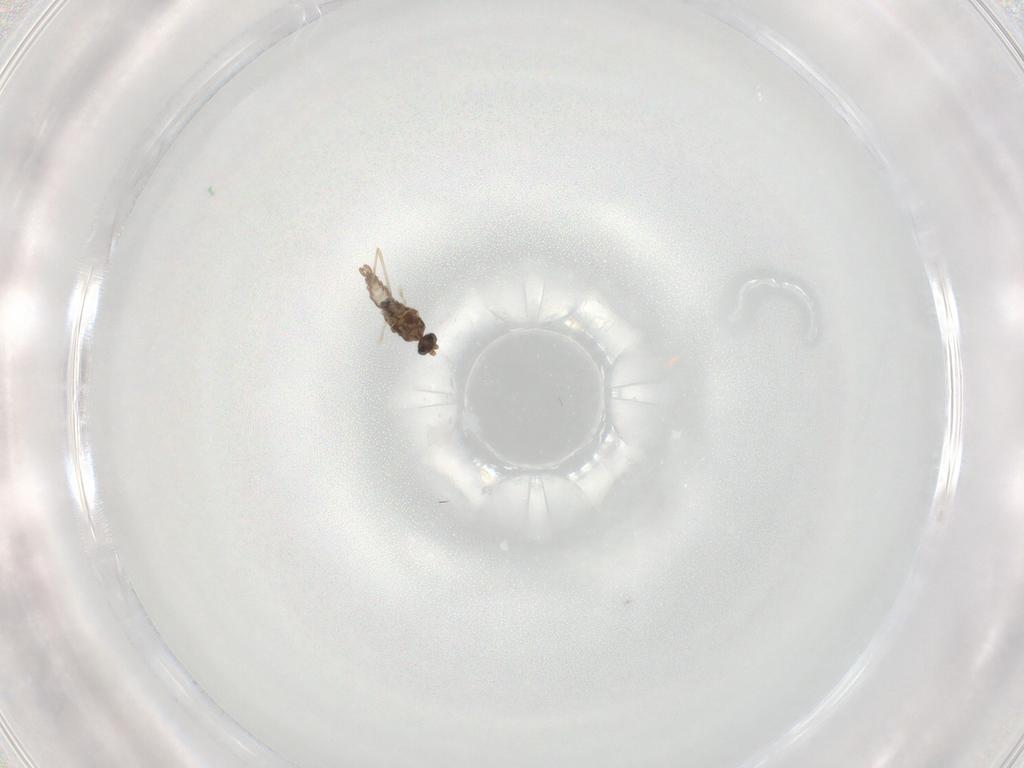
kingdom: Animalia
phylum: Arthropoda
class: Insecta
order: Diptera
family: Cecidomyiidae
